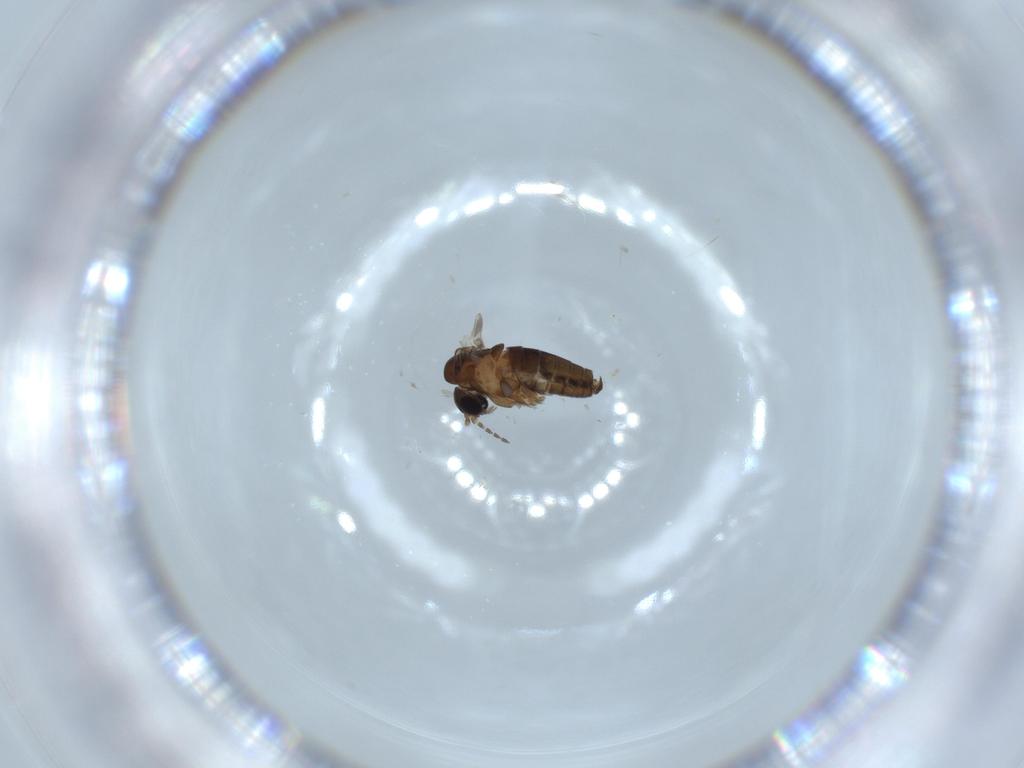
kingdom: Animalia
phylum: Arthropoda
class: Insecta
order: Diptera
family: Psychodidae
